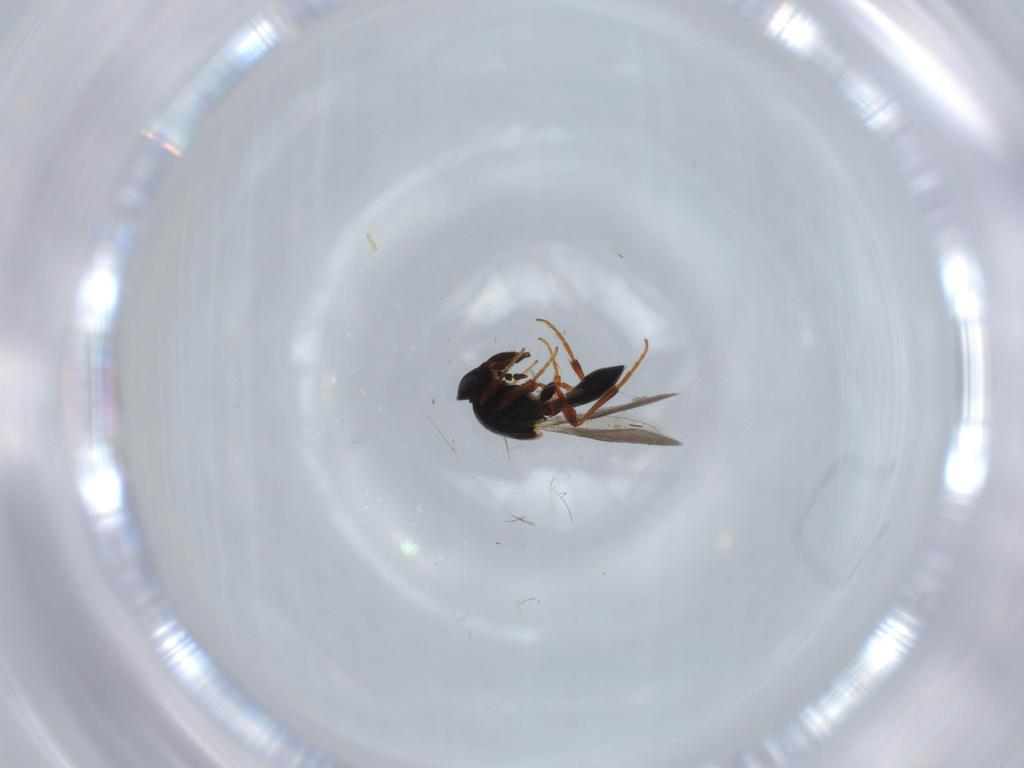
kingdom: Animalia
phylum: Arthropoda
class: Insecta
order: Hymenoptera
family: Platygastridae
